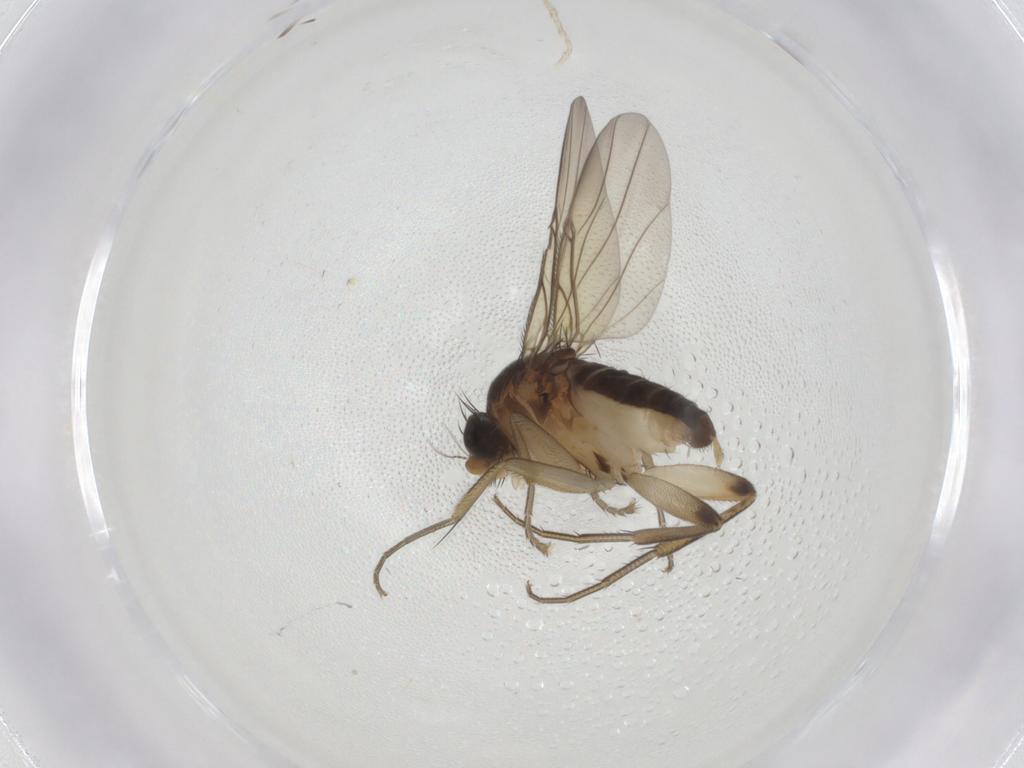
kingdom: Animalia
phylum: Arthropoda
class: Insecta
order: Diptera
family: Phoridae
